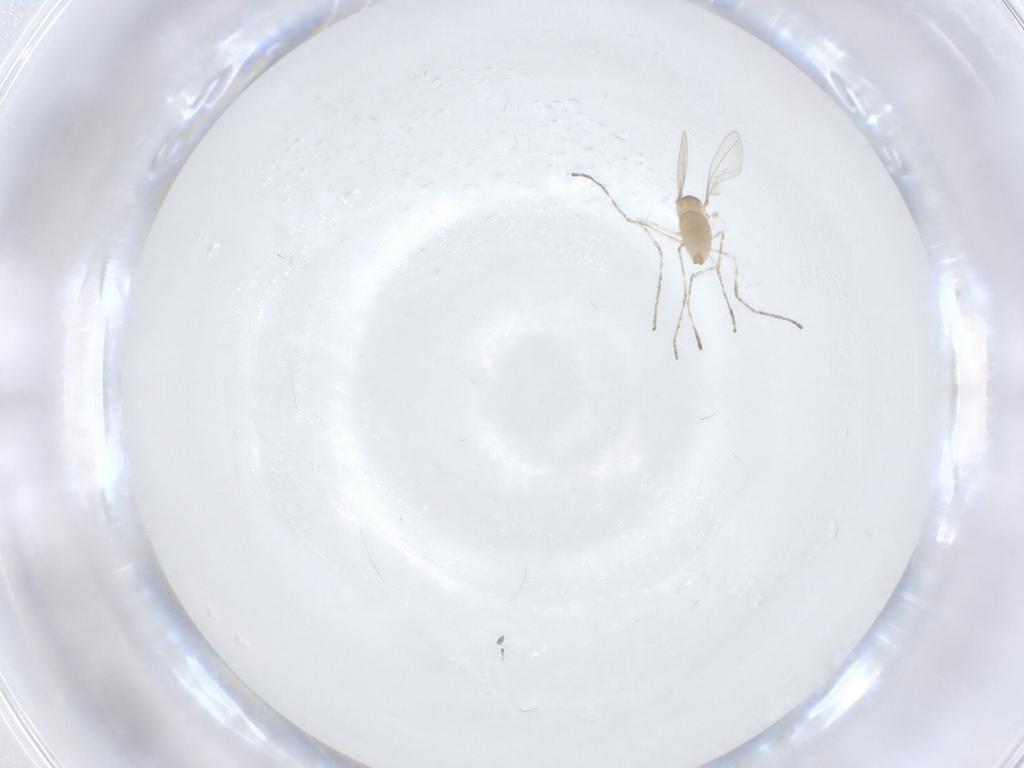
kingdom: Animalia
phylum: Arthropoda
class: Insecta
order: Diptera
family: Cecidomyiidae
